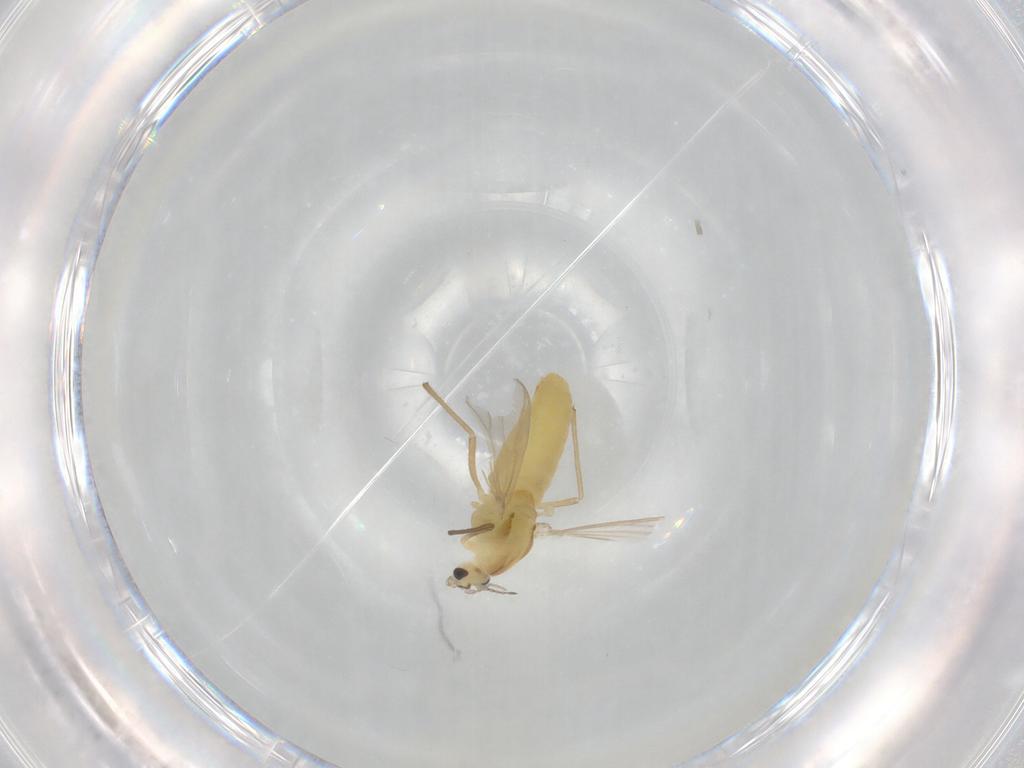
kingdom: Animalia
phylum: Arthropoda
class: Insecta
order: Diptera
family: Chironomidae
